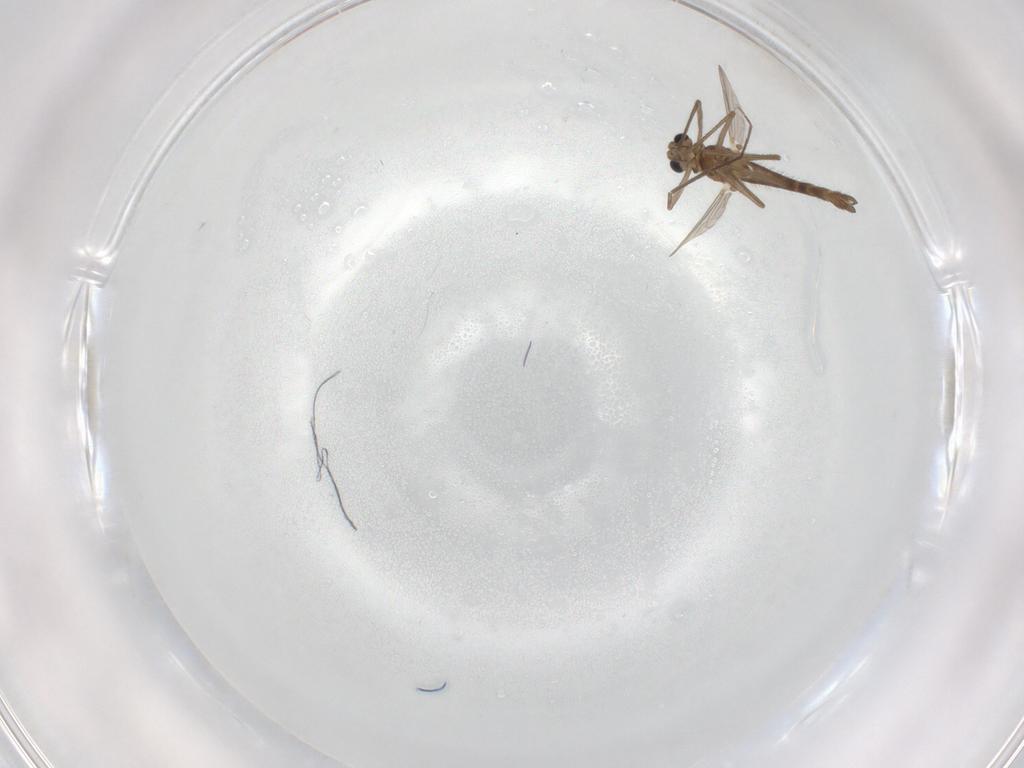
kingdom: Animalia
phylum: Arthropoda
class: Insecta
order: Diptera
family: Chironomidae
